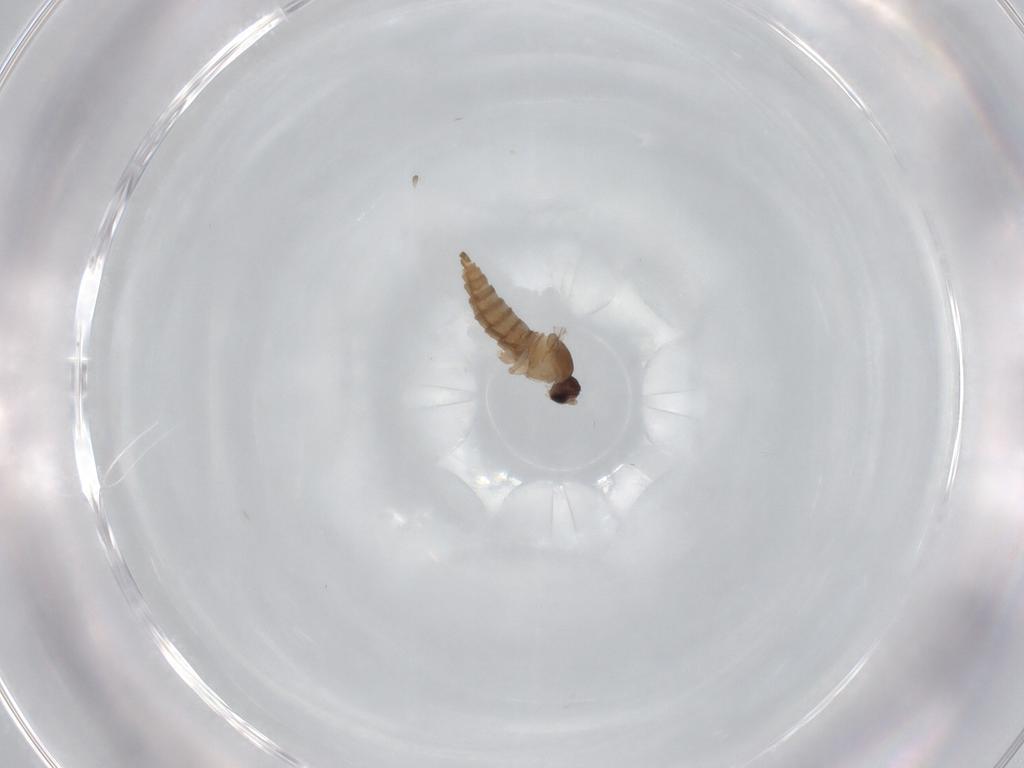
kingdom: Animalia
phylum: Arthropoda
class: Insecta
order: Diptera
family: Cecidomyiidae
